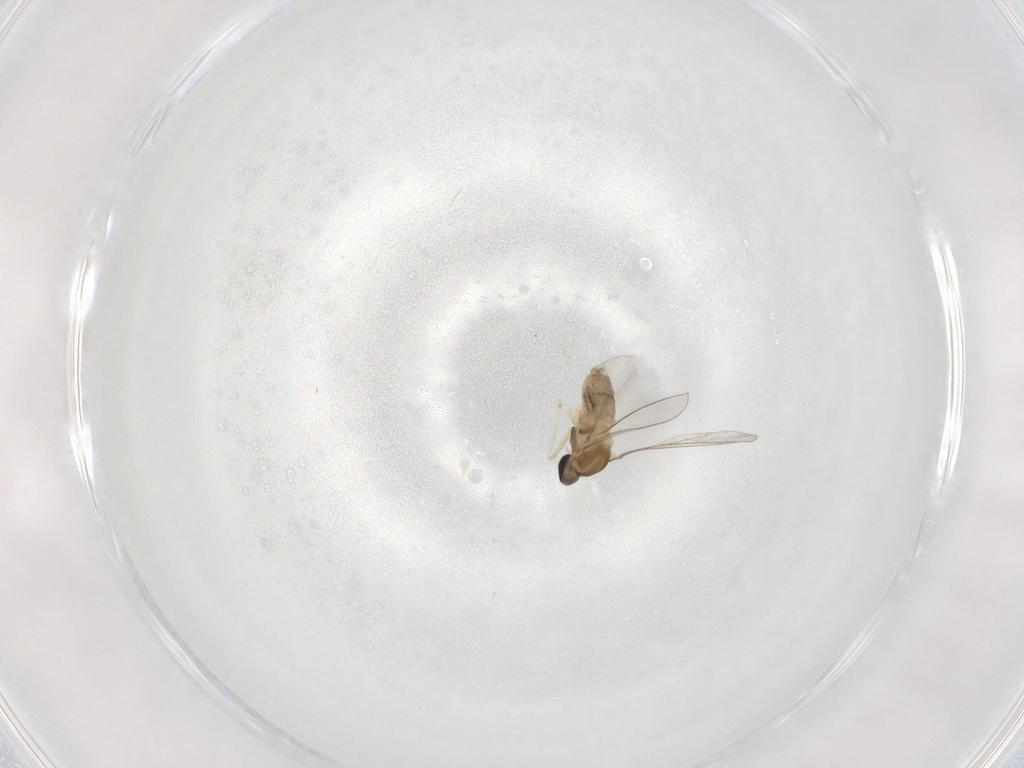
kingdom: Animalia
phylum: Arthropoda
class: Insecta
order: Diptera
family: Cecidomyiidae
